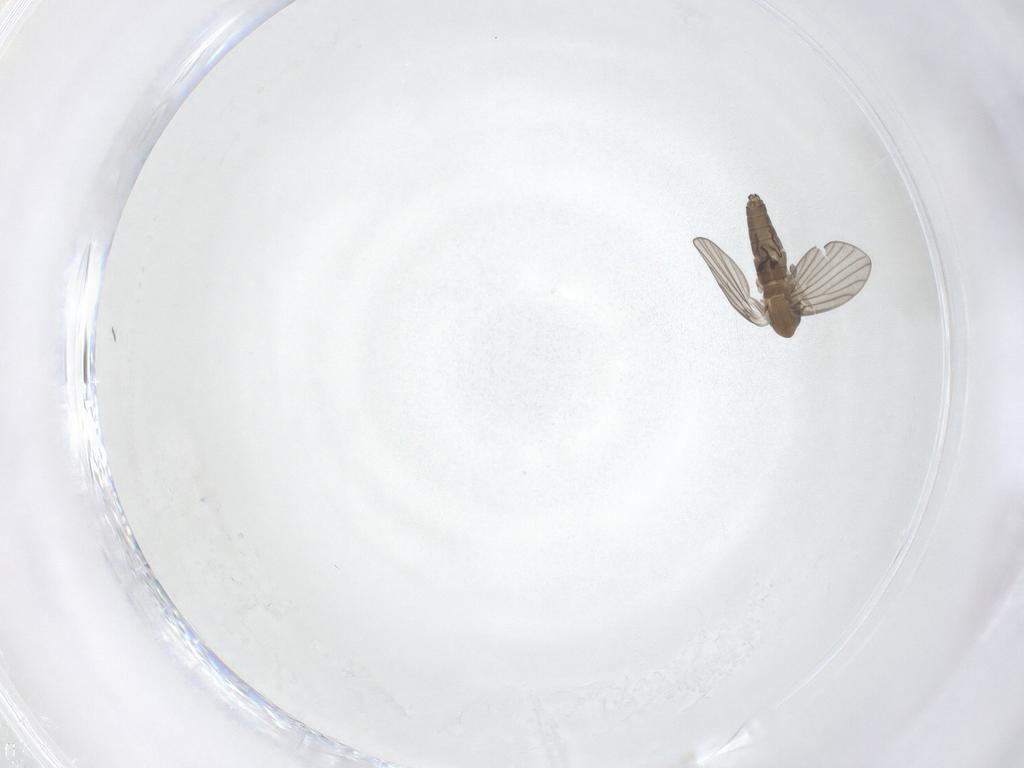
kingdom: Animalia
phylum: Arthropoda
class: Insecta
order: Diptera
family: Psychodidae
